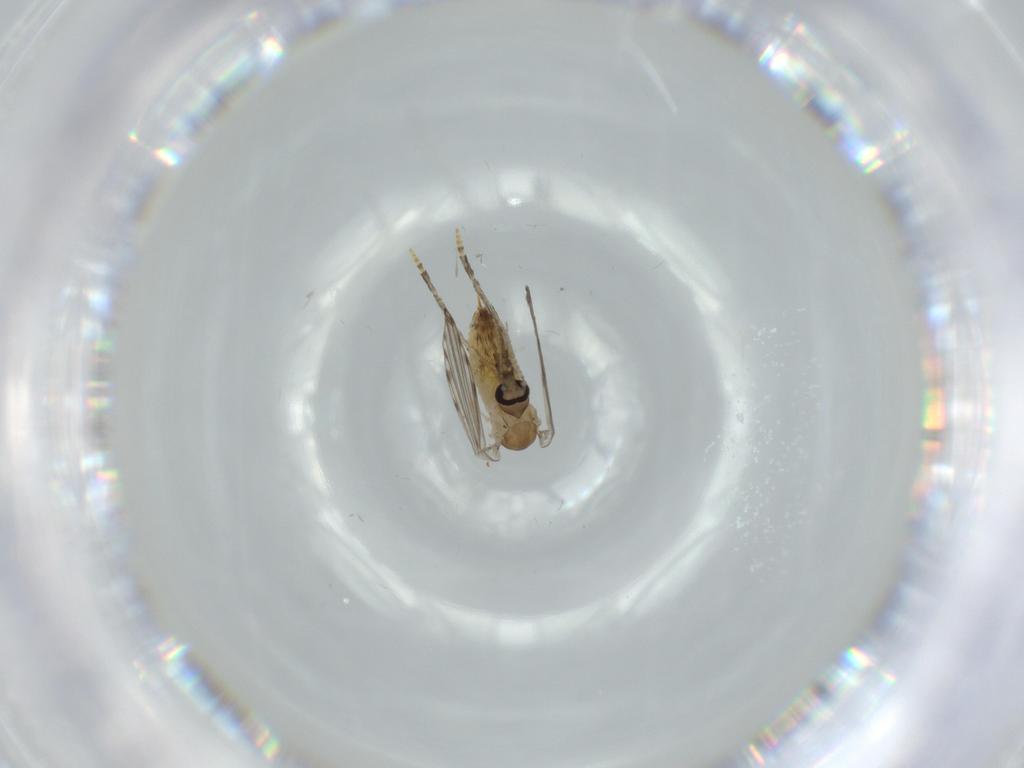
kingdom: Animalia
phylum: Arthropoda
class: Insecta
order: Diptera
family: Psychodidae
